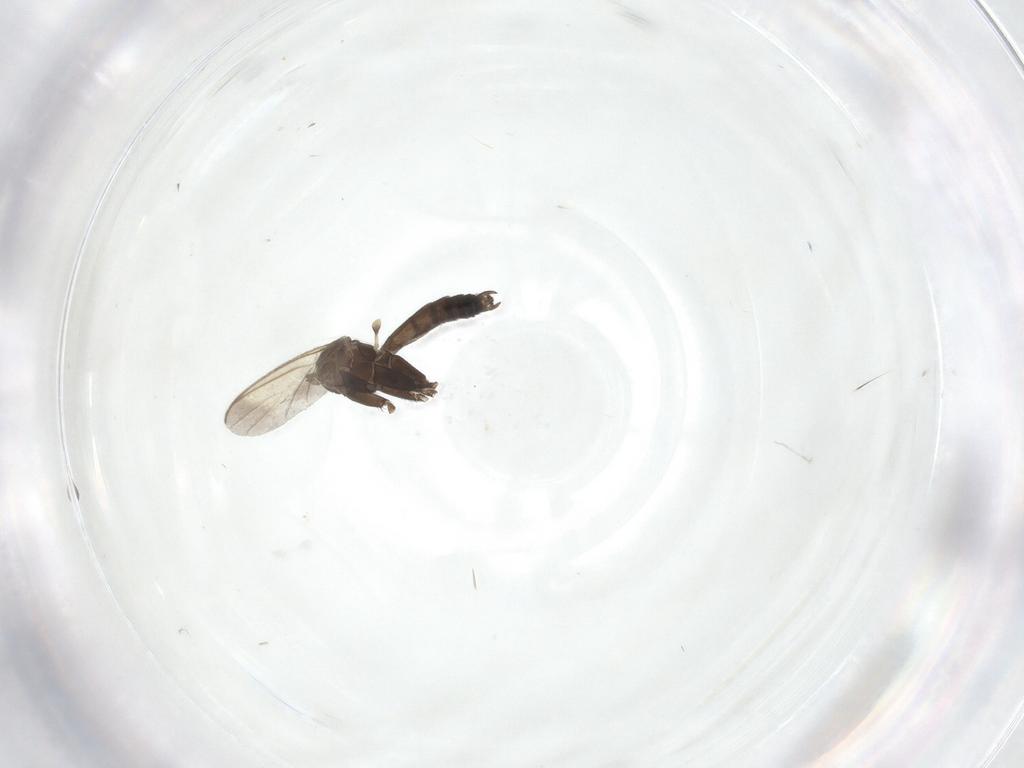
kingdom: Animalia
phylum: Arthropoda
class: Insecta
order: Diptera
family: Keroplatidae
